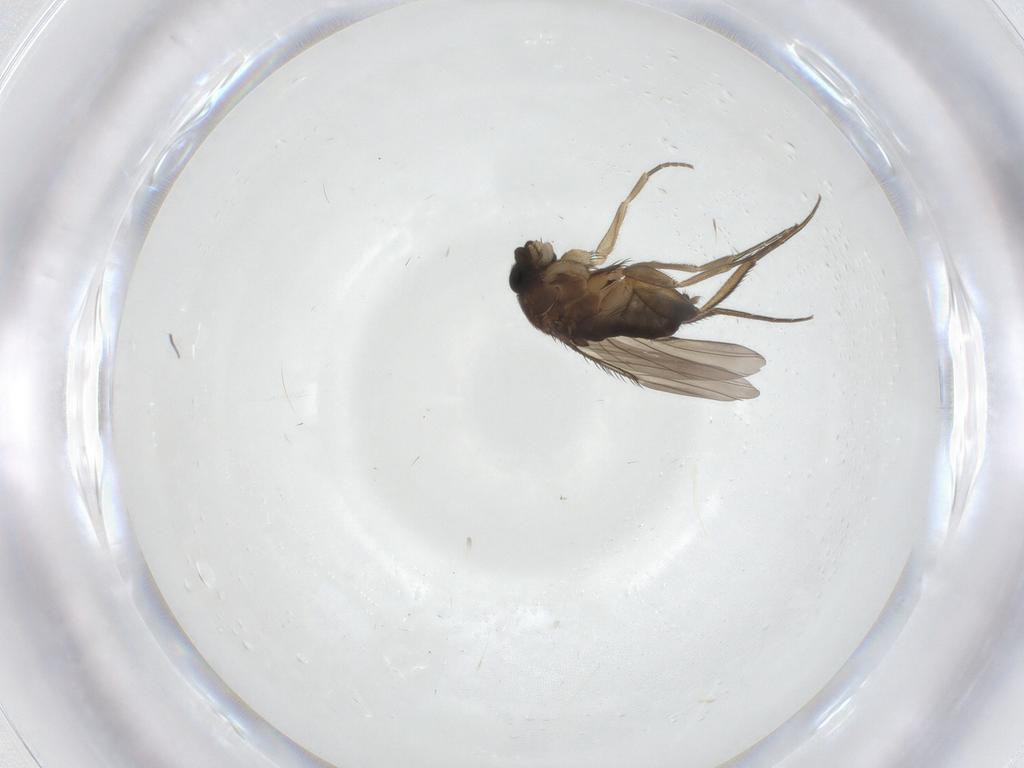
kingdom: Animalia
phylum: Arthropoda
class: Insecta
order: Diptera
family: Phoridae
